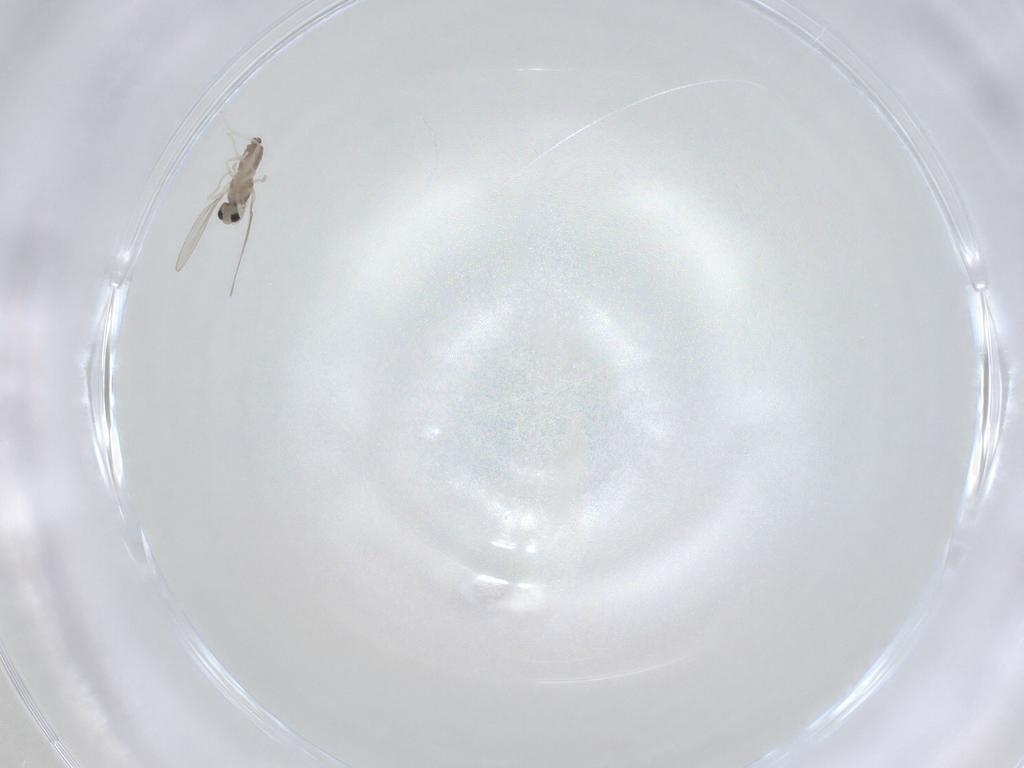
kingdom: Animalia
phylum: Arthropoda
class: Insecta
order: Diptera
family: Cecidomyiidae
